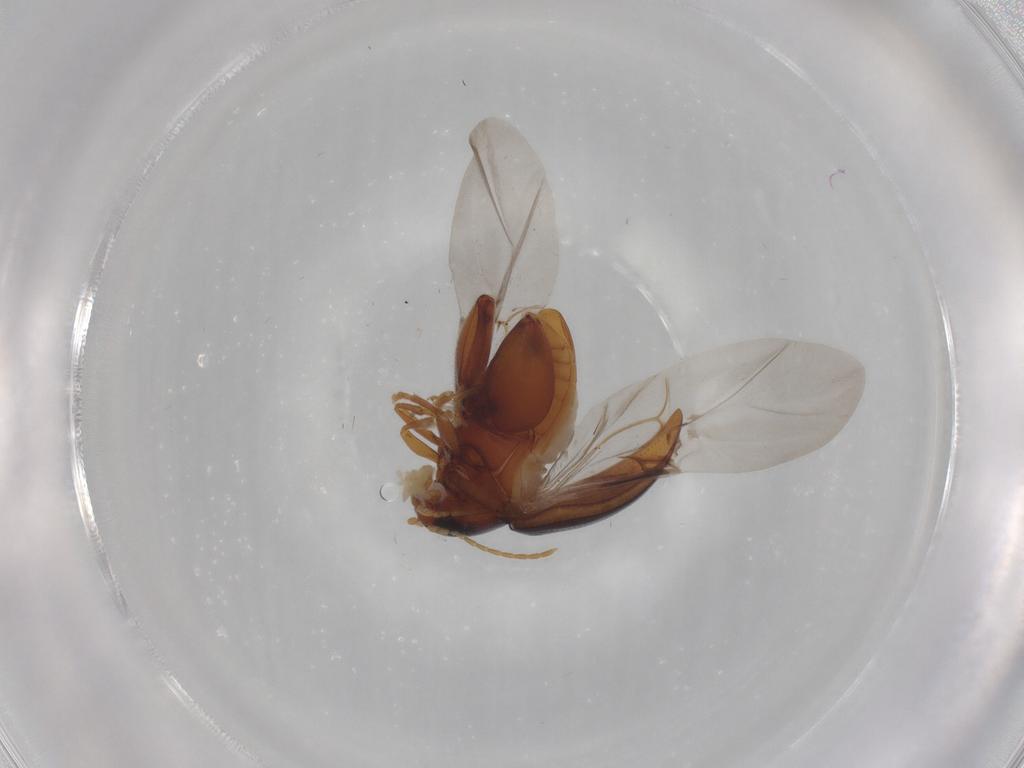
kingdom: Animalia
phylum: Arthropoda
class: Insecta
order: Coleoptera
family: Chrysomelidae
